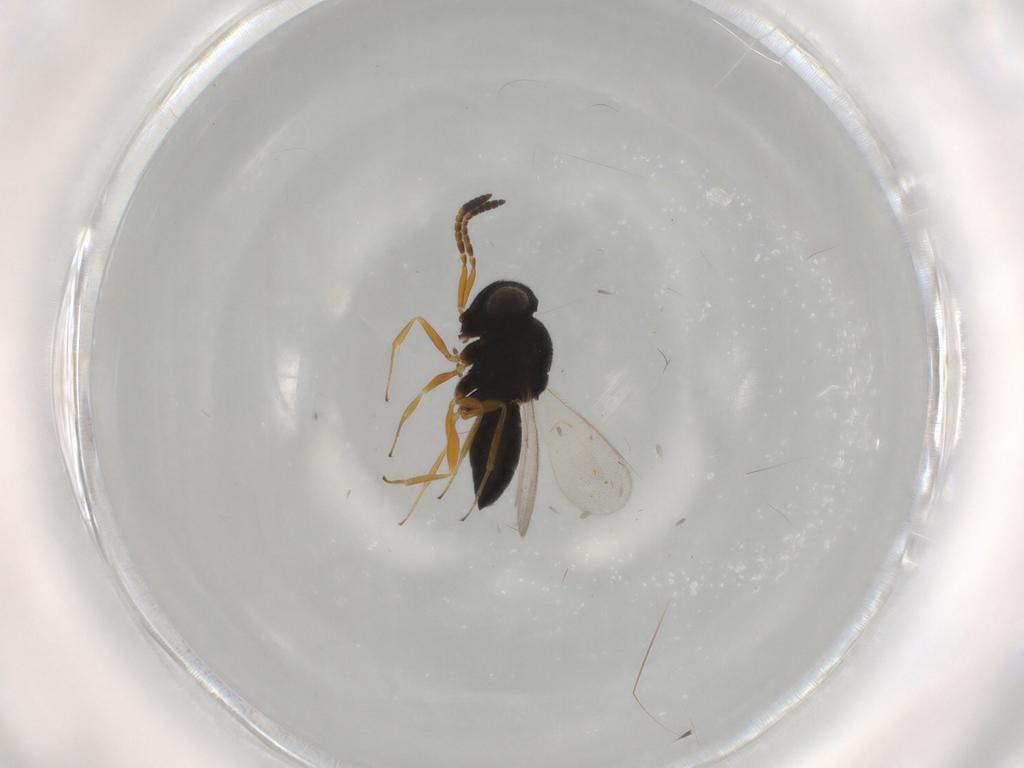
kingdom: Animalia
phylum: Arthropoda
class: Insecta
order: Hymenoptera
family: Scelionidae
